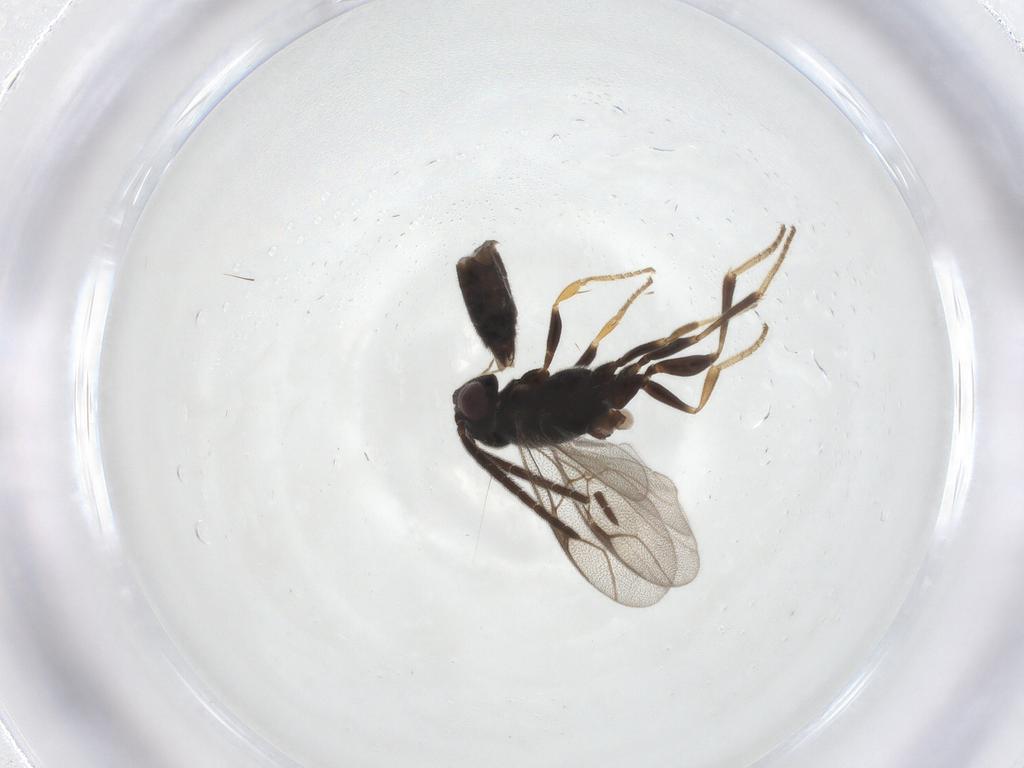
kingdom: Animalia
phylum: Arthropoda
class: Insecta
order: Hymenoptera
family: Dryinidae
